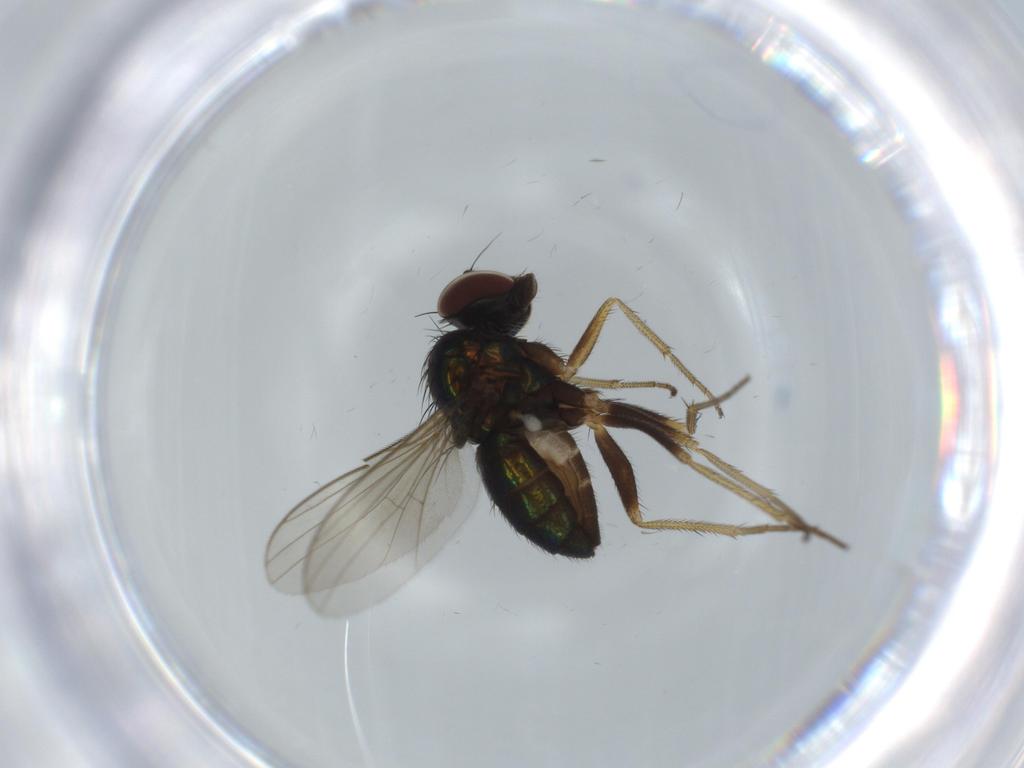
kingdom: Animalia
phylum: Arthropoda
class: Insecta
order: Diptera
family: Dolichopodidae
